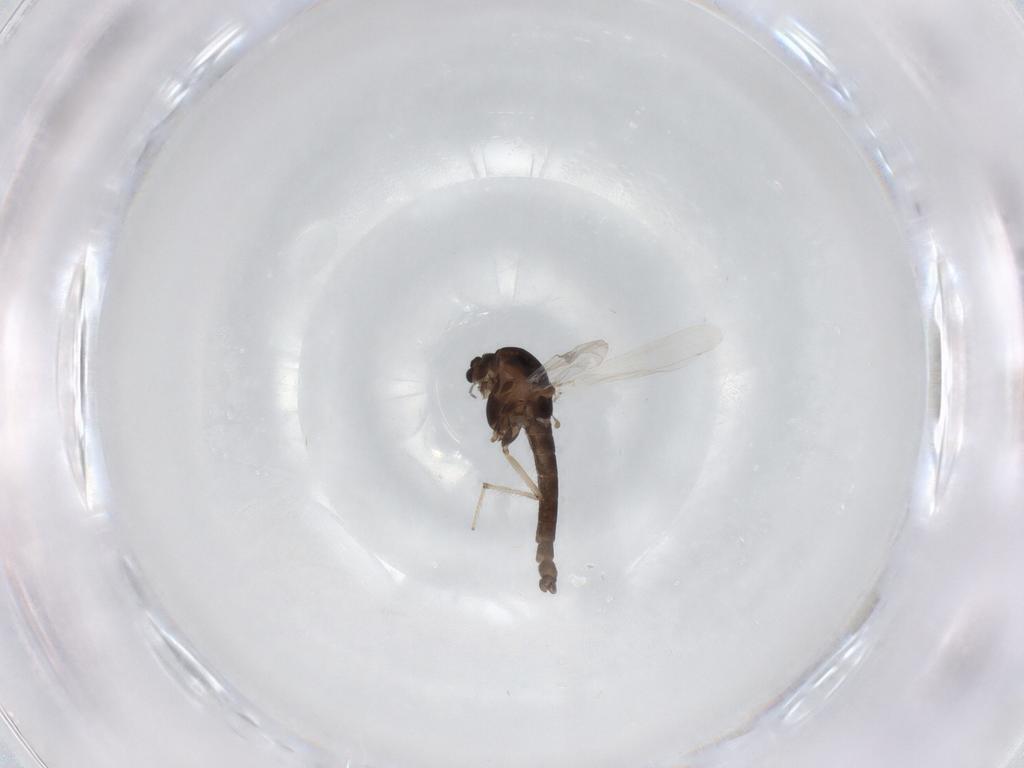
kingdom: Animalia
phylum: Arthropoda
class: Insecta
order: Diptera
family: Chironomidae
